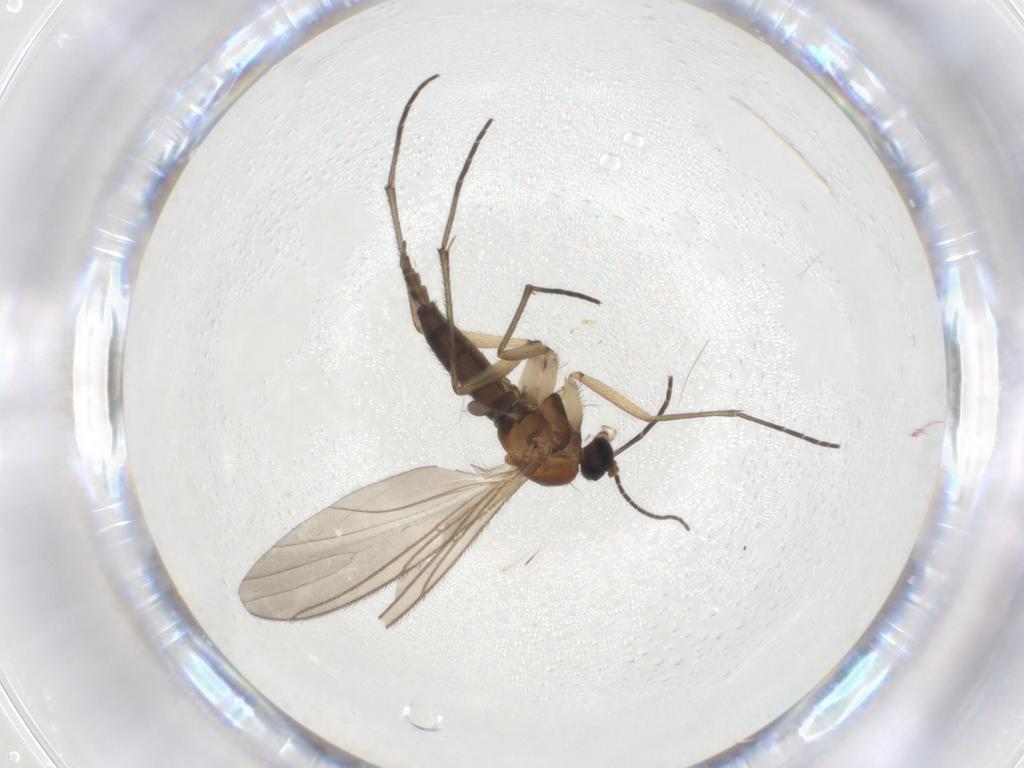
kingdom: Animalia
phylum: Arthropoda
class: Insecta
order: Diptera
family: Sciaridae
